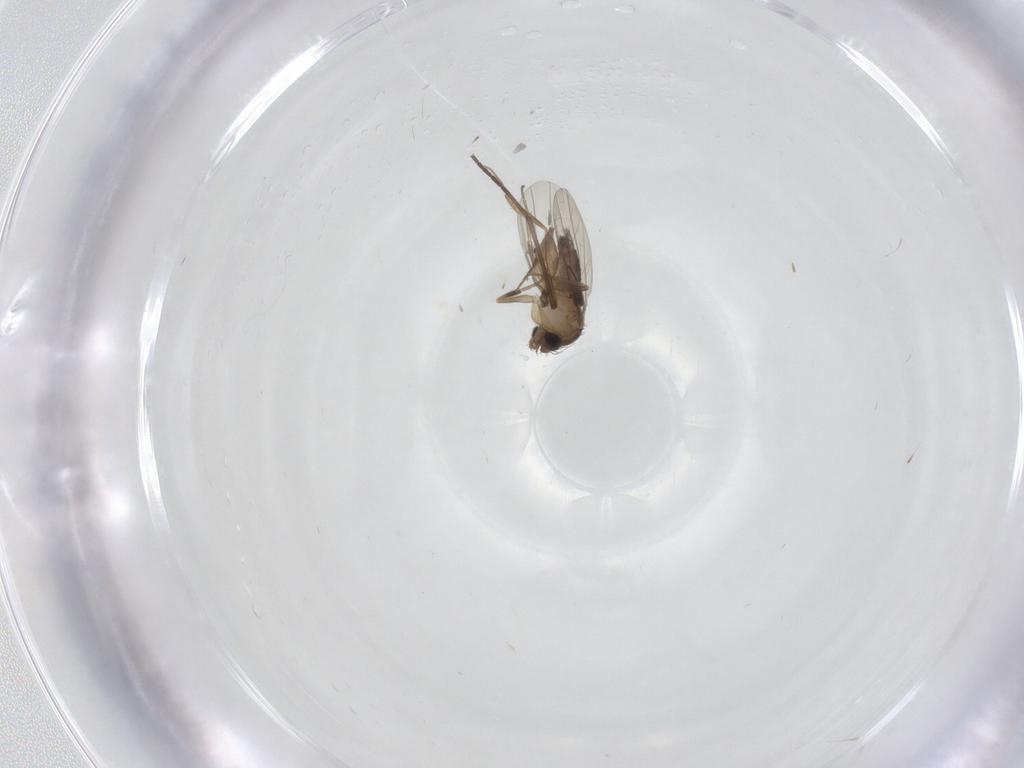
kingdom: Animalia
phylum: Arthropoda
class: Insecta
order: Diptera
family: Phoridae
